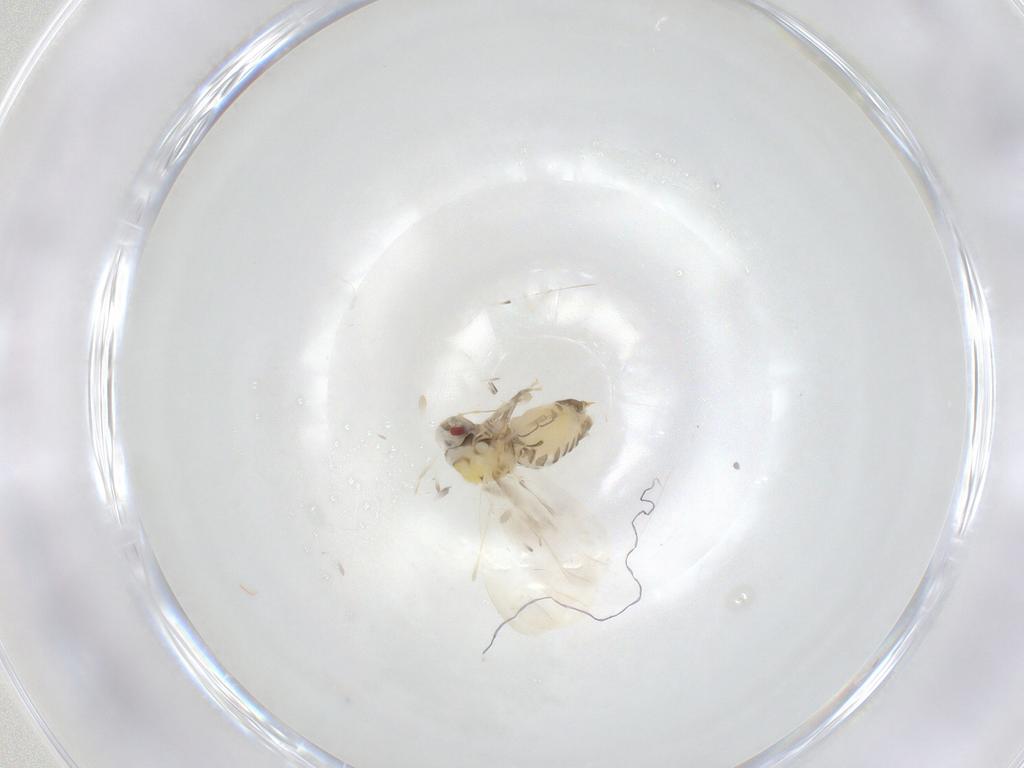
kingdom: Animalia
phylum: Arthropoda
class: Insecta
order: Hemiptera
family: Aleyrodidae
